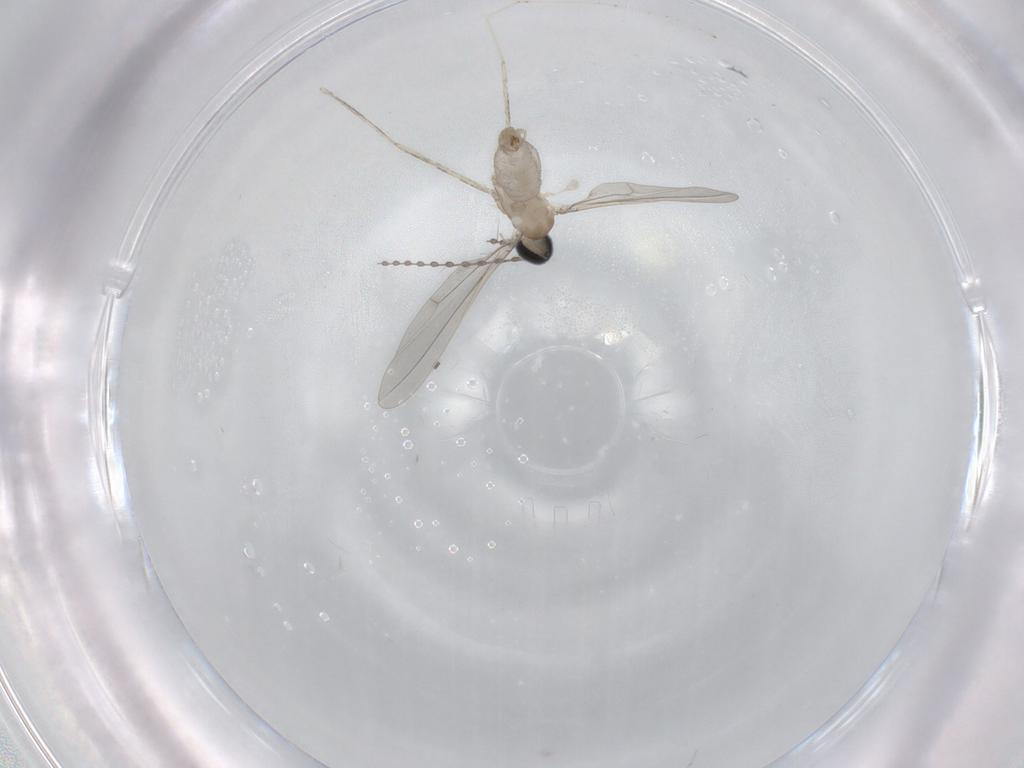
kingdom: Animalia
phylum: Arthropoda
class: Insecta
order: Diptera
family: Cecidomyiidae
